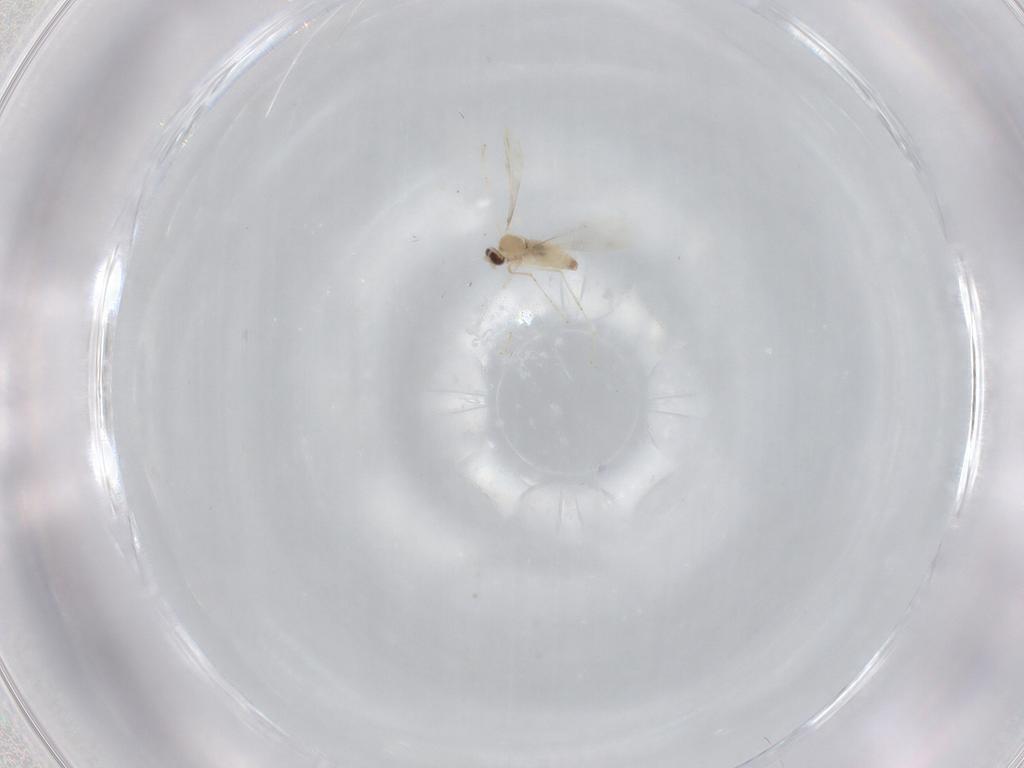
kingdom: Animalia
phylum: Arthropoda
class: Insecta
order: Diptera
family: Cecidomyiidae
